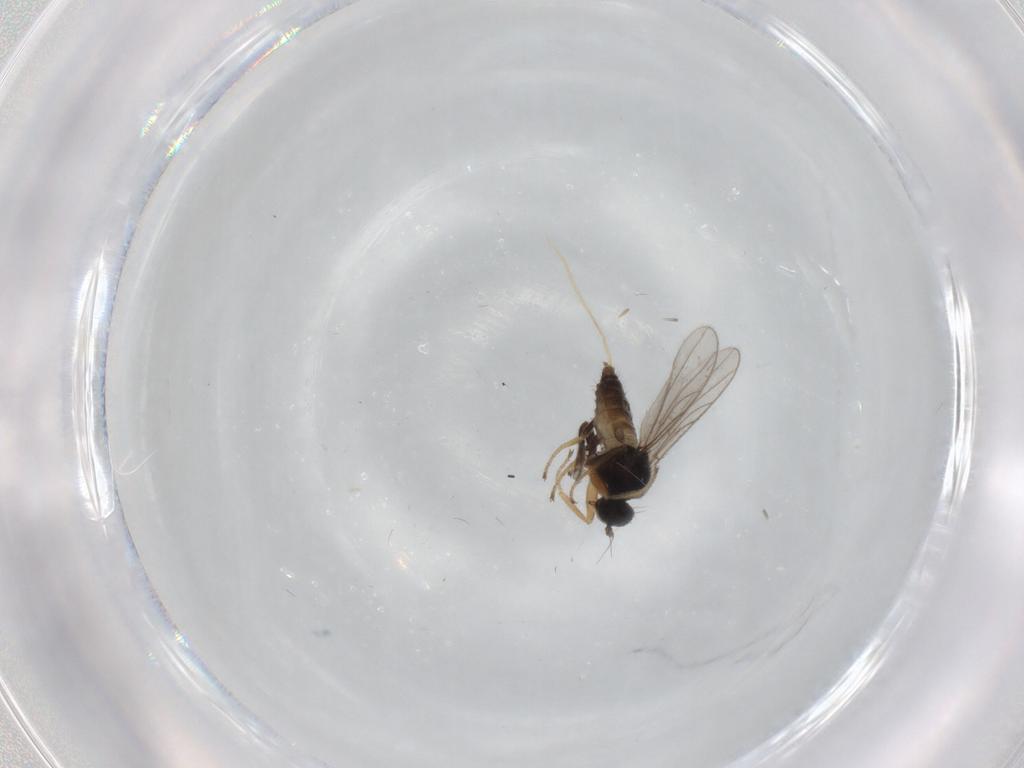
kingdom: Animalia
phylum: Arthropoda
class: Insecta
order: Diptera
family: Hybotidae
